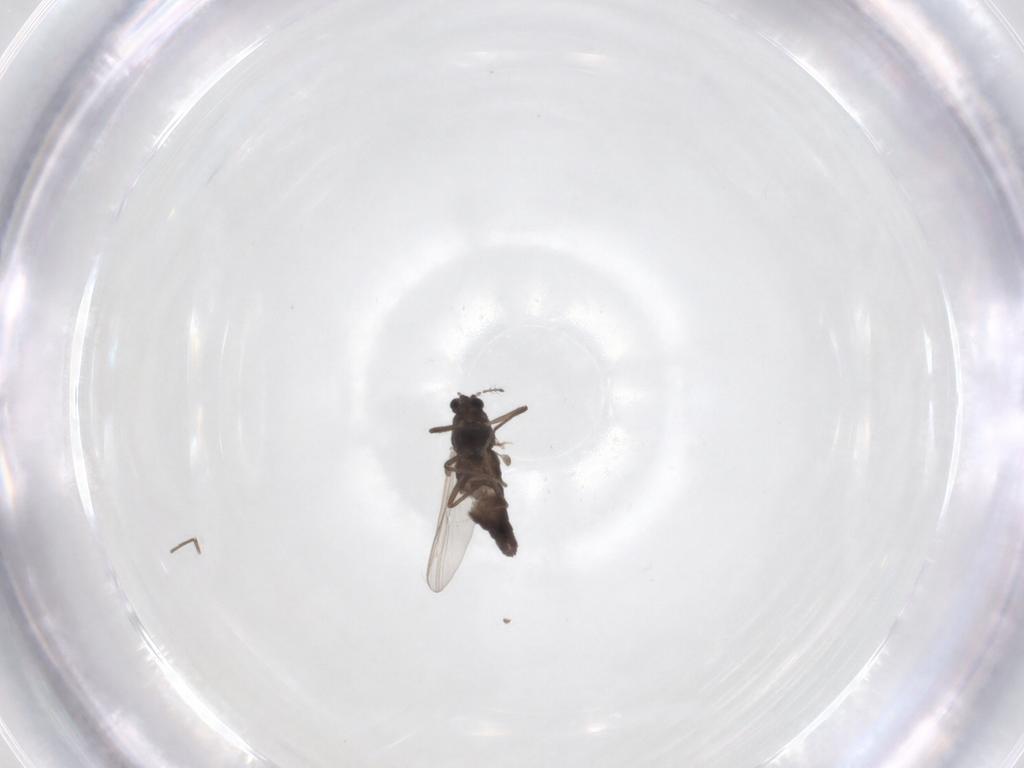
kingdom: Animalia
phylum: Arthropoda
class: Insecta
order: Diptera
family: Chironomidae
